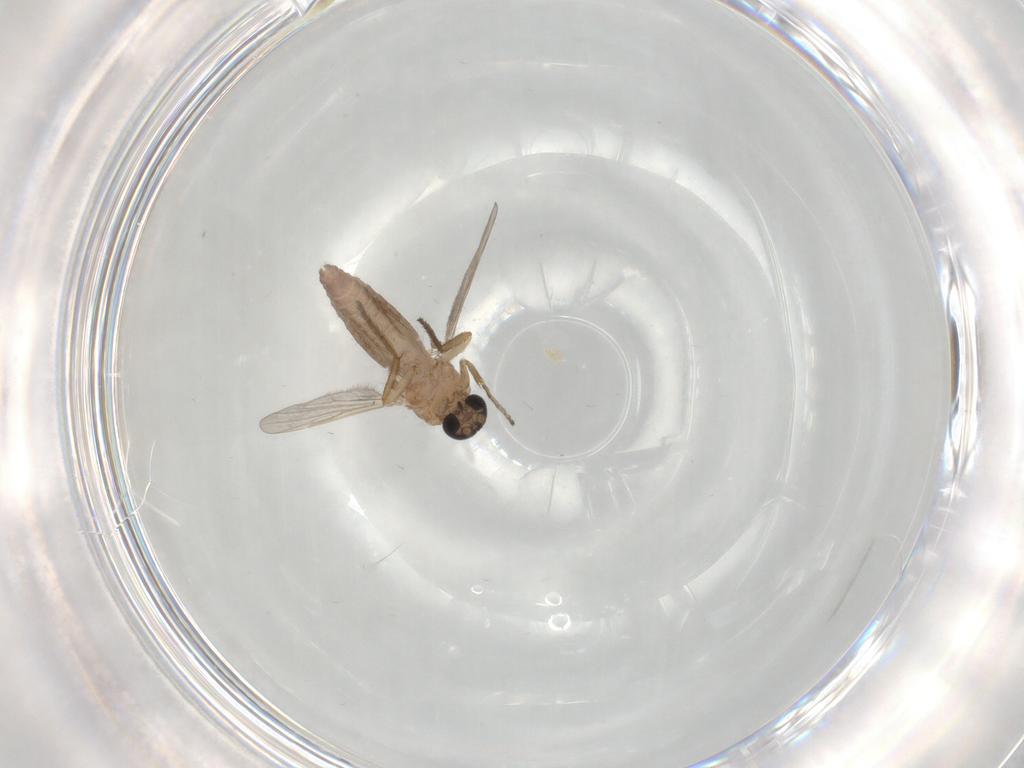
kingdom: Animalia
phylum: Arthropoda
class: Insecta
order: Diptera
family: Ceratopogonidae
